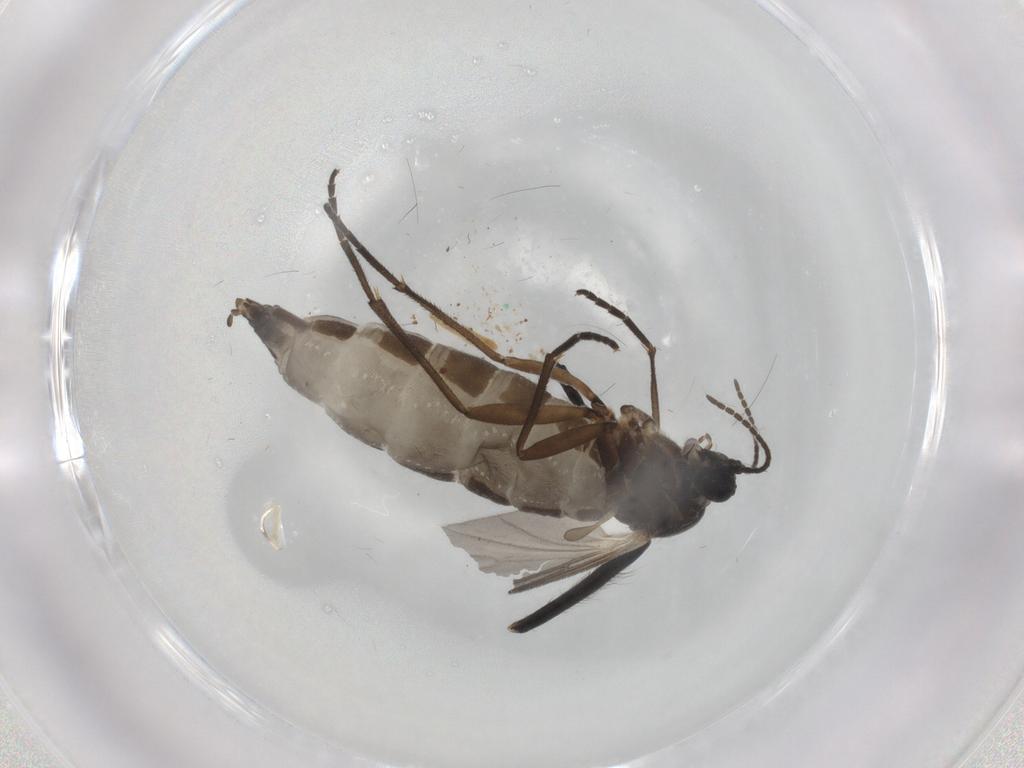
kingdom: Animalia
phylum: Arthropoda
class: Insecta
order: Diptera
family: Sciaridae
